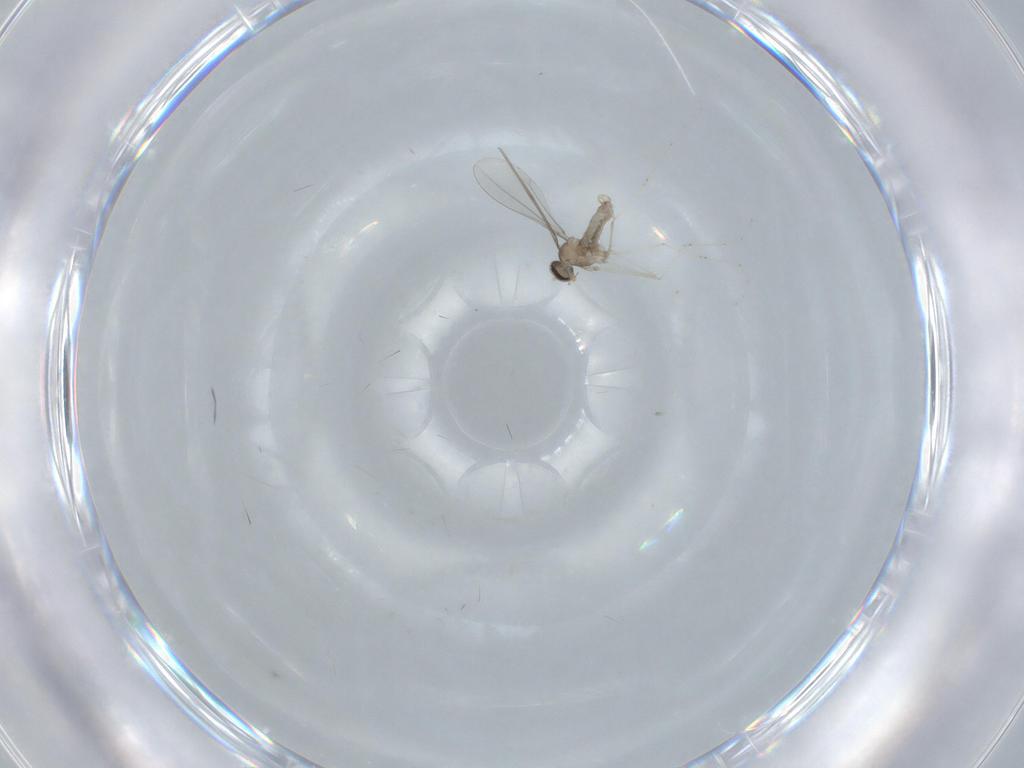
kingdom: Animalia
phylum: Arthropoda
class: Insecta
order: Diptera
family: Cecidomyiidae
